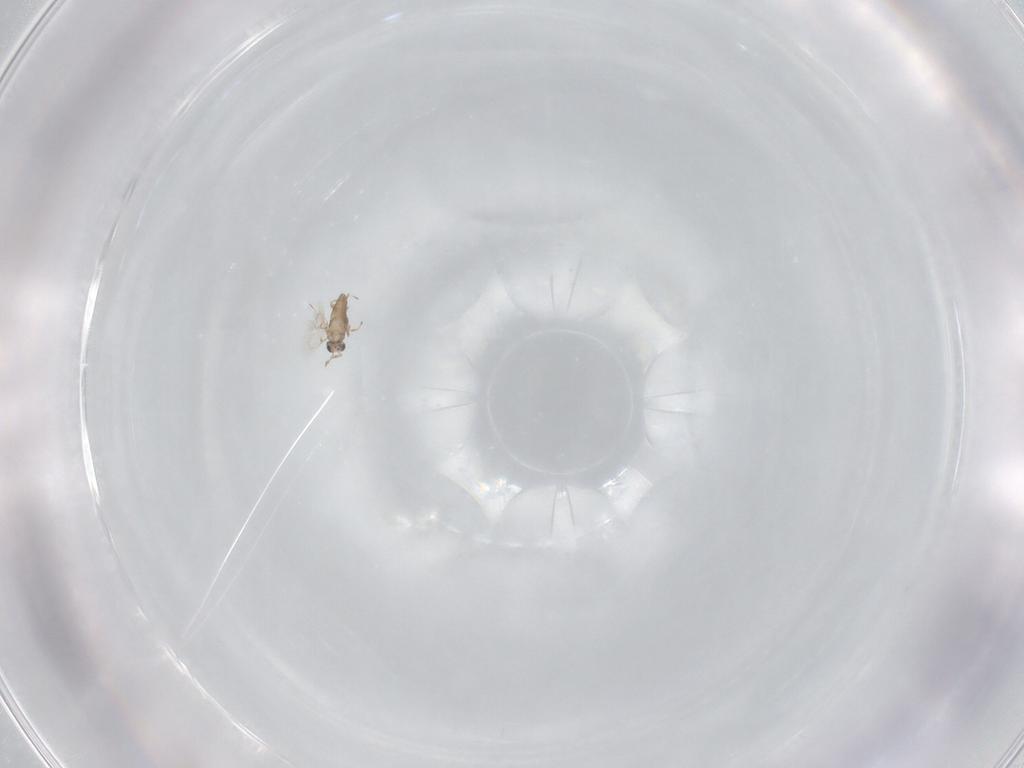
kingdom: Animalia
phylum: Arthropoda
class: Insecta
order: Hymenoptera
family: Trichogrammatidae
